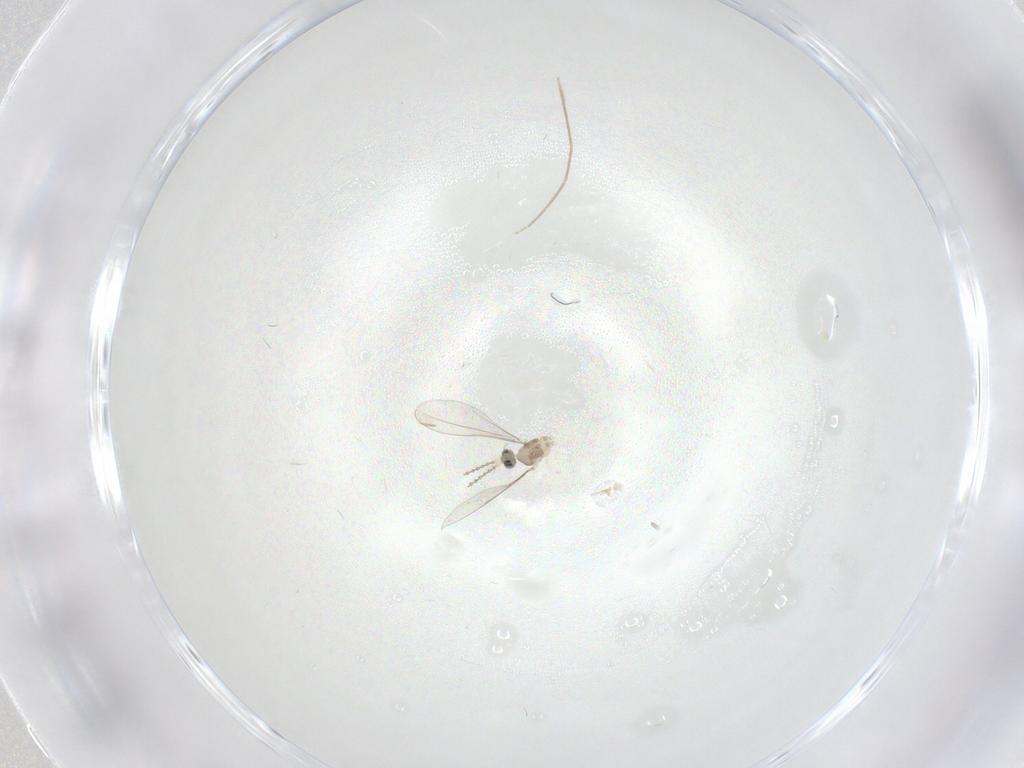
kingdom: Animalia
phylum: Arthropoda
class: Insecta
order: Diptera
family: Cecidomyiidae
